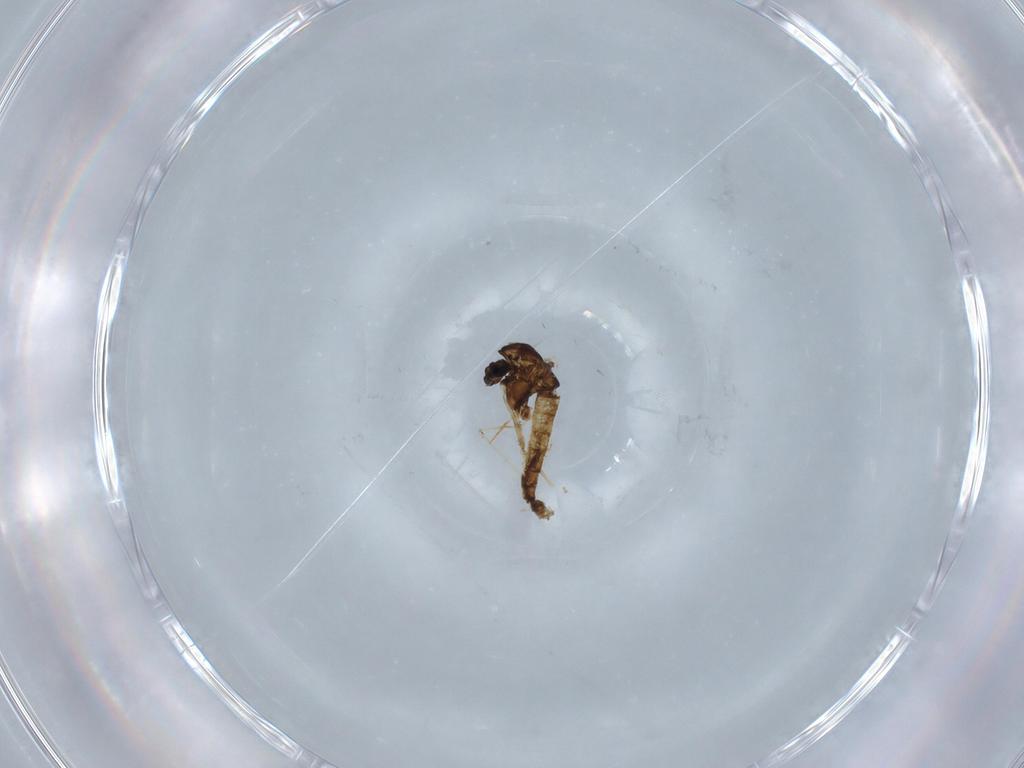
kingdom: Animalia
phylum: Arthropoda
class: Insecta
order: Diptera
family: Chironomidae
